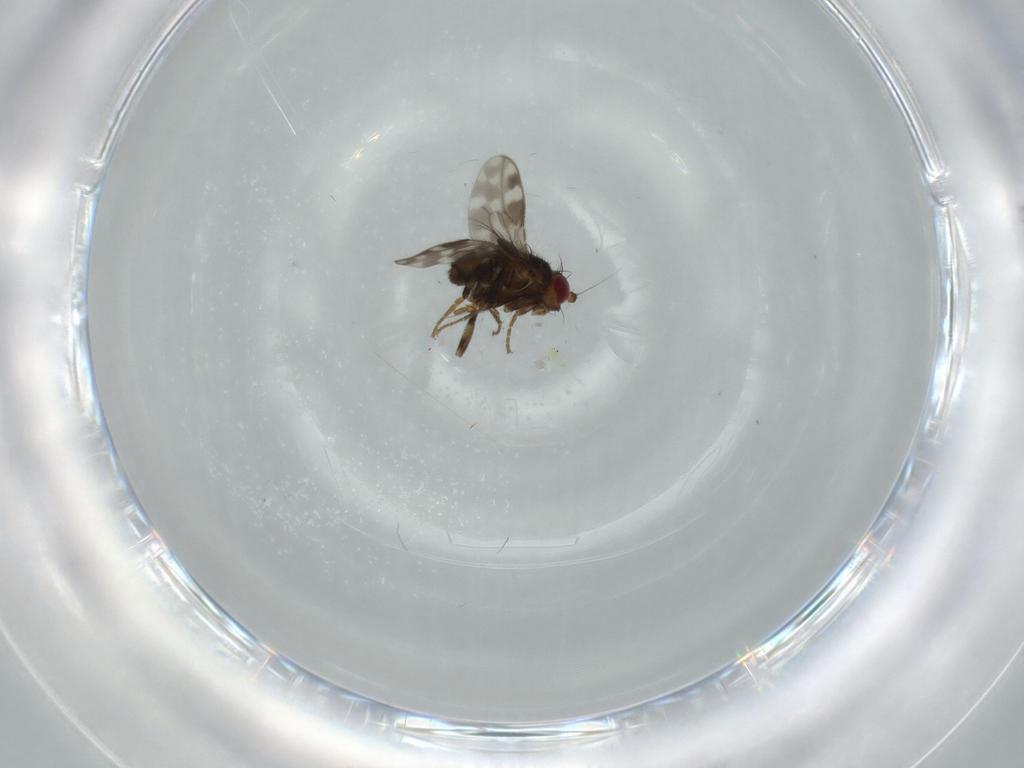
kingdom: Animalia
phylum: Arthropoda
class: Insecta
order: Diptera
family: Sphaeroceridae
